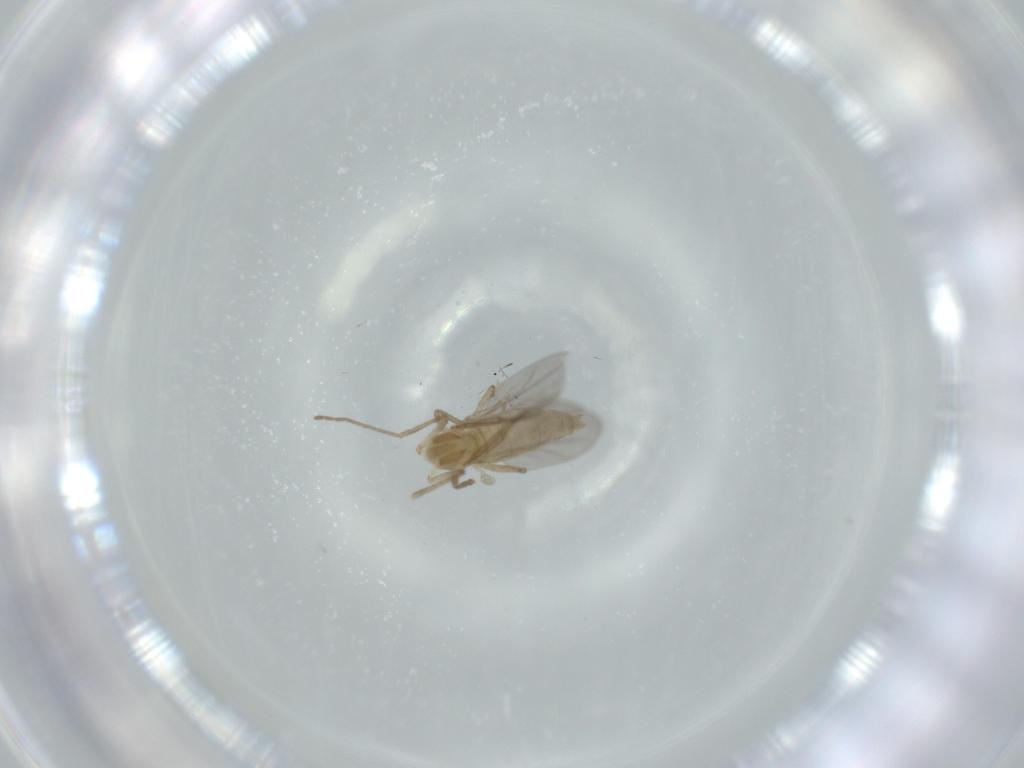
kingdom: Animalia
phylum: Arthropoda
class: Insecta
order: Diptera
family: Cecidomyiidae
